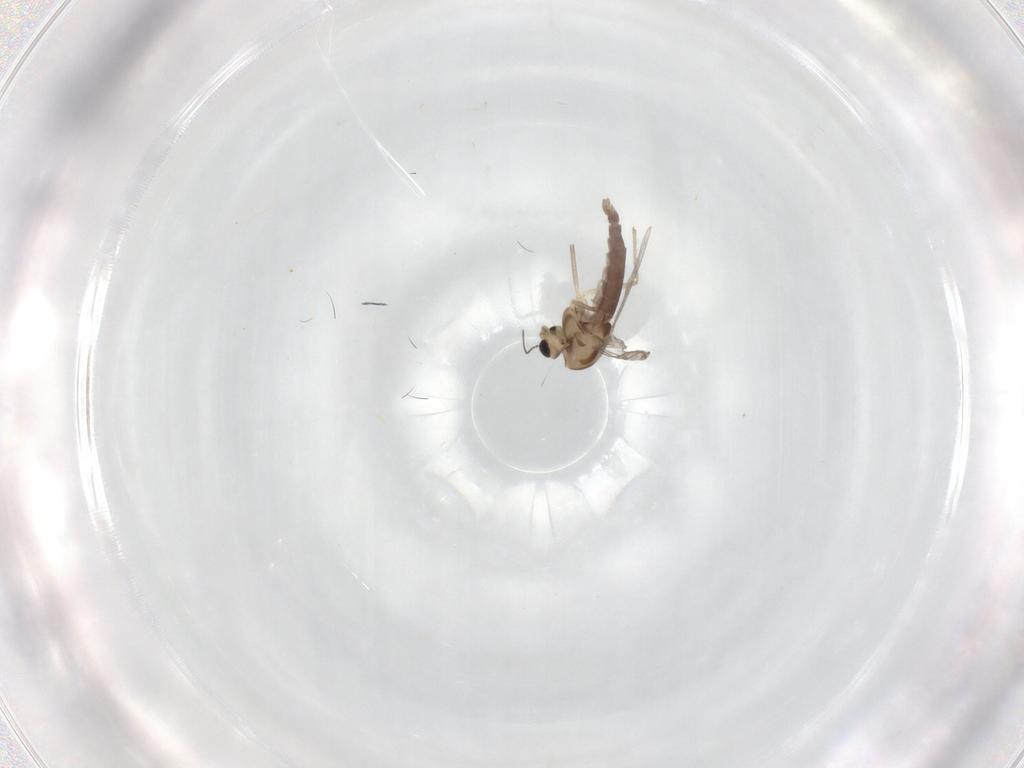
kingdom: Animalia
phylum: Arthropoda
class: Insecta
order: Diptera
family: Chironomidae
